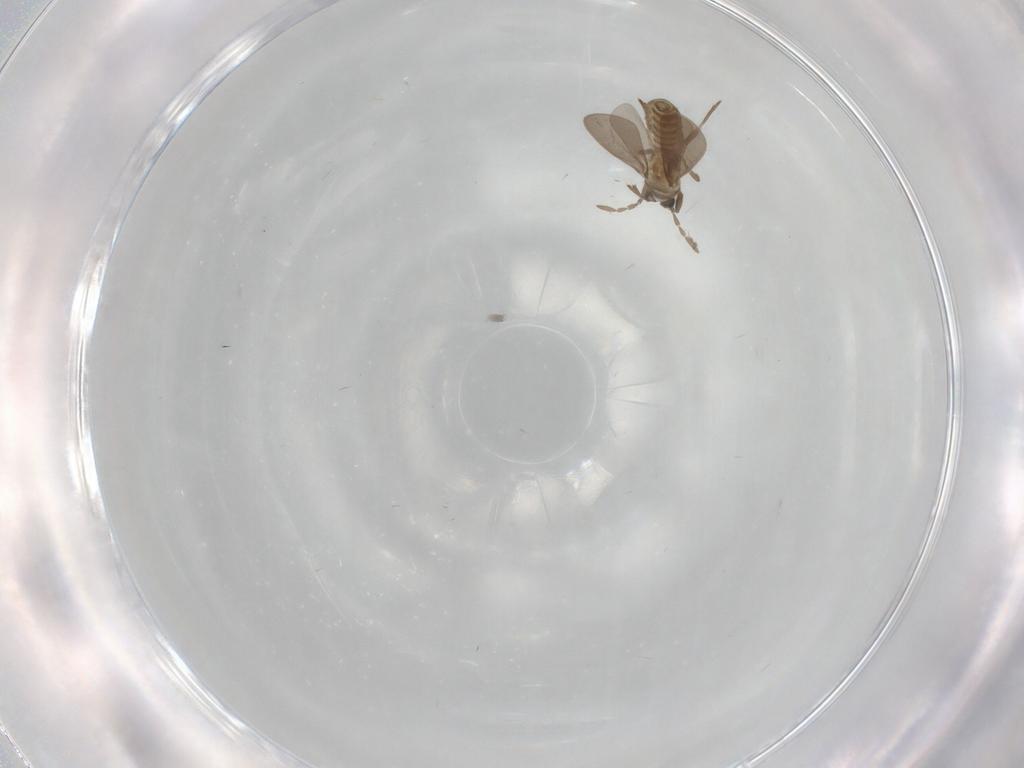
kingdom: Animalia
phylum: Arthropoda
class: Insecta
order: Hemiptera
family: Enicocephalidae
